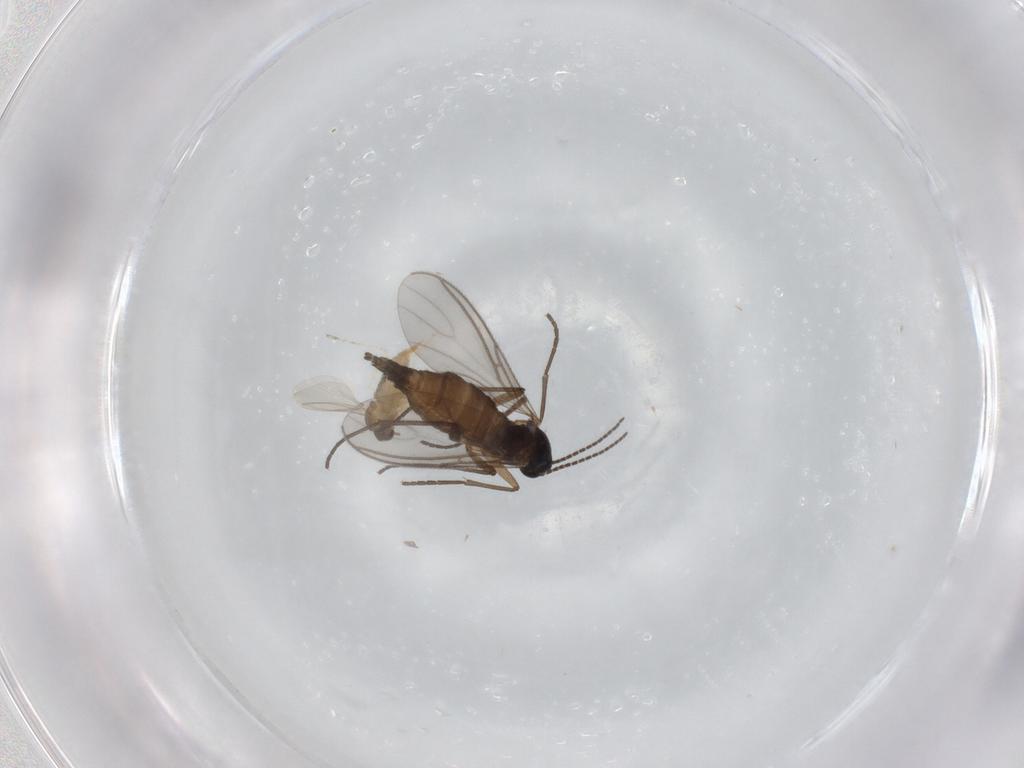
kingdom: Animalia
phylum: Arthropoda
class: Insecta
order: Diptera
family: Sciaridae
